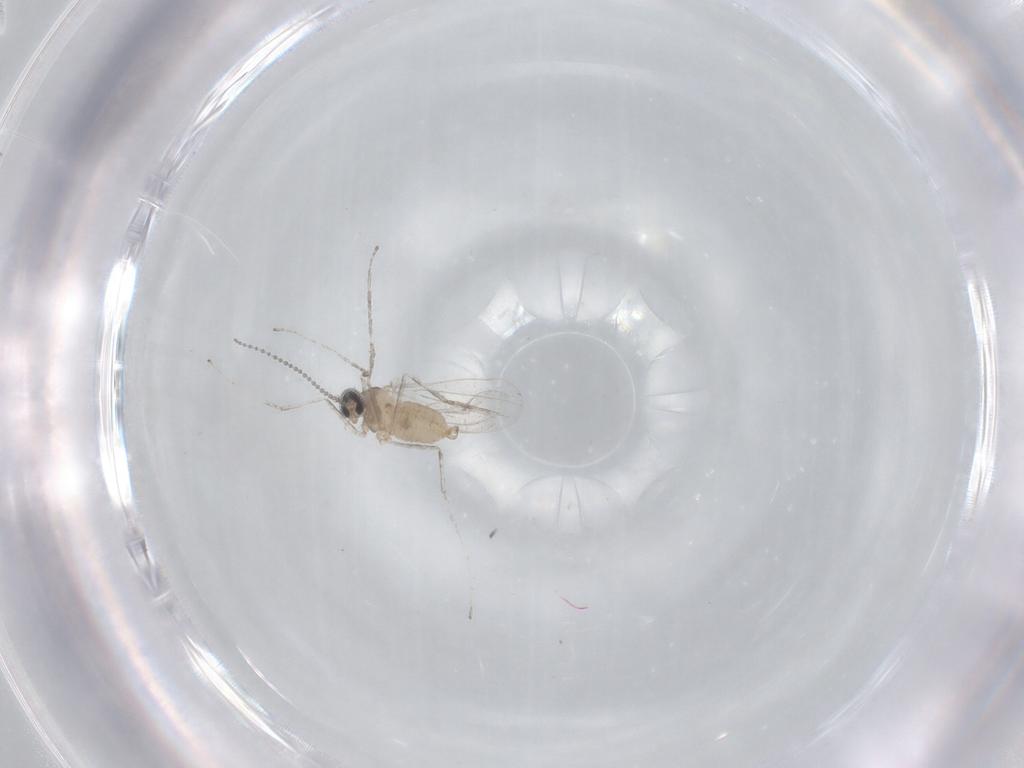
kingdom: Animalia
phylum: Arthropoda
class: Insecta
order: Diptera
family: Cecidomyiidae
